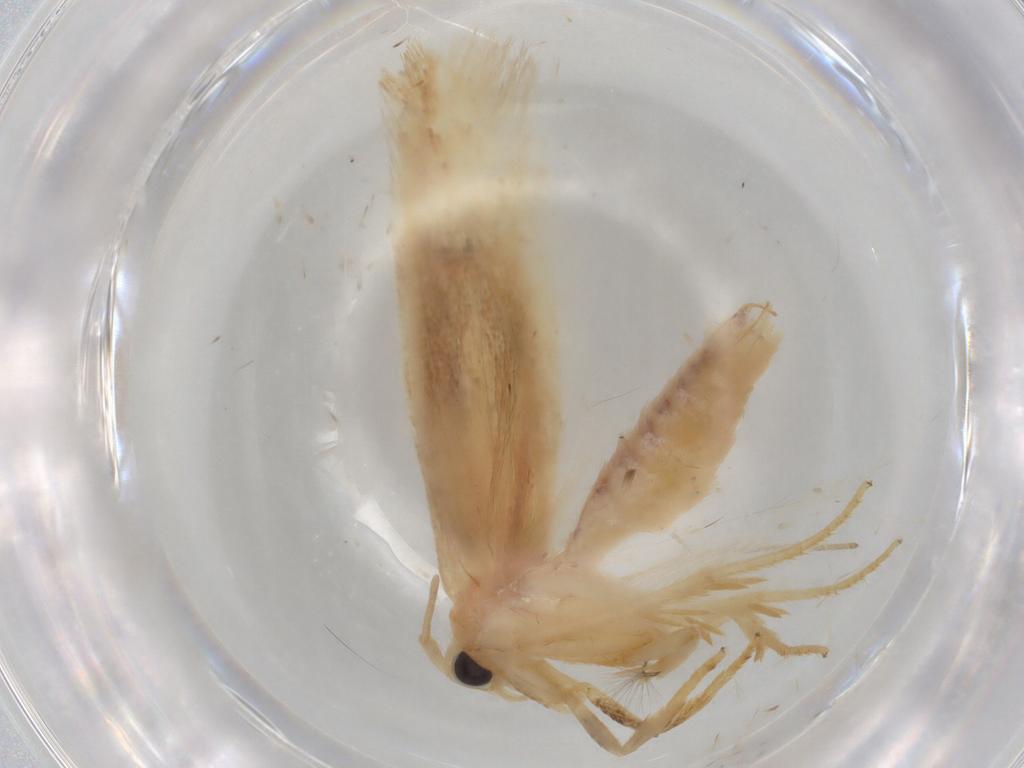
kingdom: Animalia
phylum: Arthropoda
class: Insecta
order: Lepidoptera
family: Geometridae
